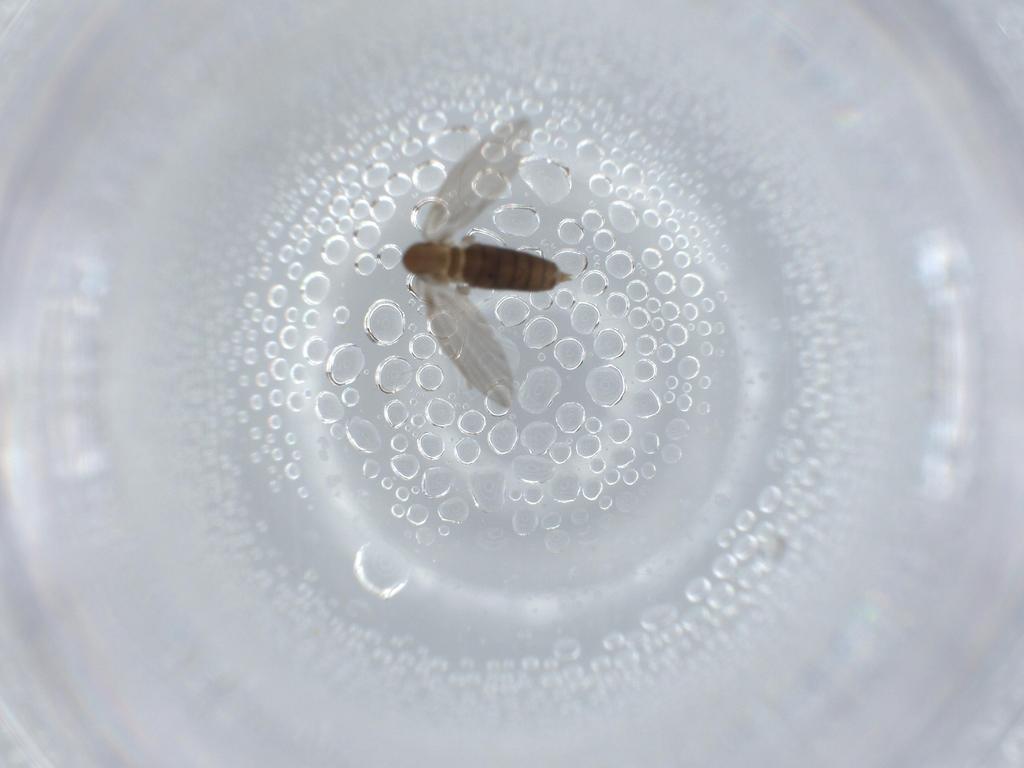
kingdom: Animalia
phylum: Arthropoda
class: Insecta
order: Diptera
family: Psychodidae
